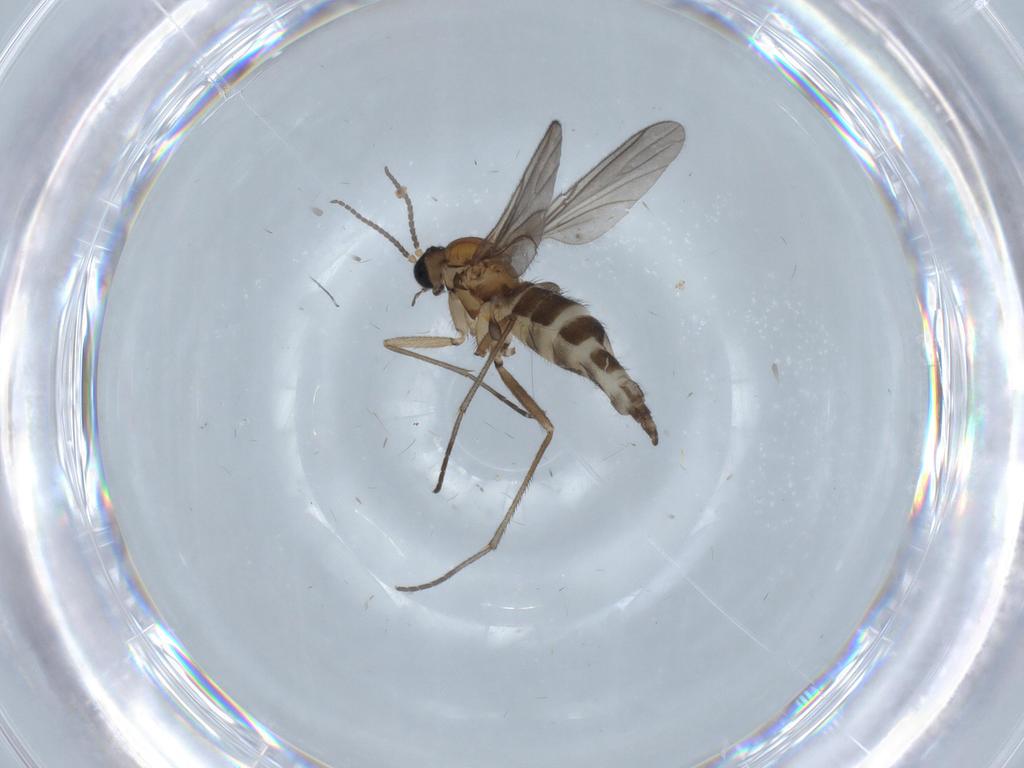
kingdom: Animalia
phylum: Arthropoda
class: Insecta
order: Diptera
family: Sciaridae
